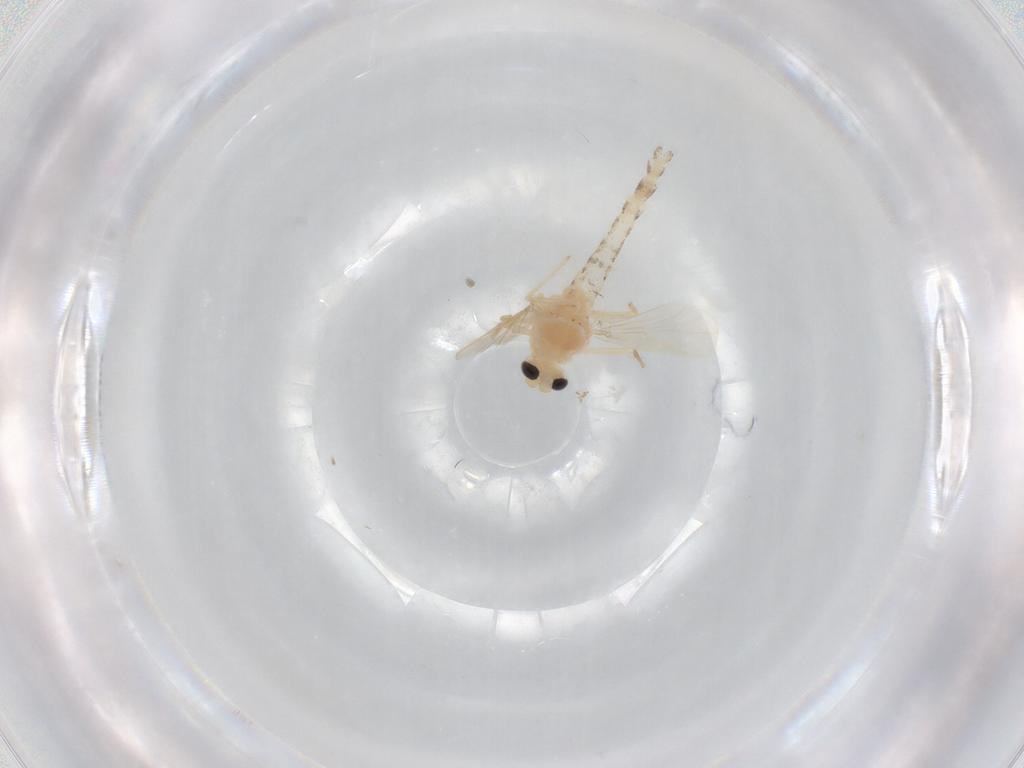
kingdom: Animalia
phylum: Arthropoda
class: Insecta
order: Diptera
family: Chironomidae
